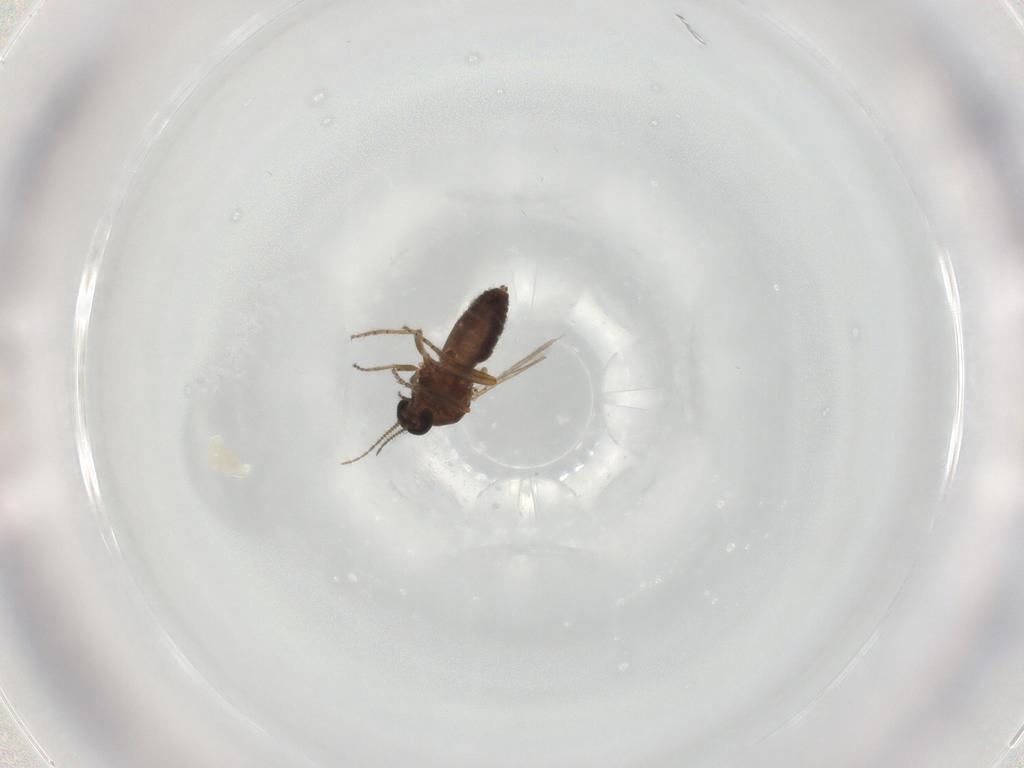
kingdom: Animalia
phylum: Arthropoda
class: Insecta
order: Diptera
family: Ceratopogonidae
